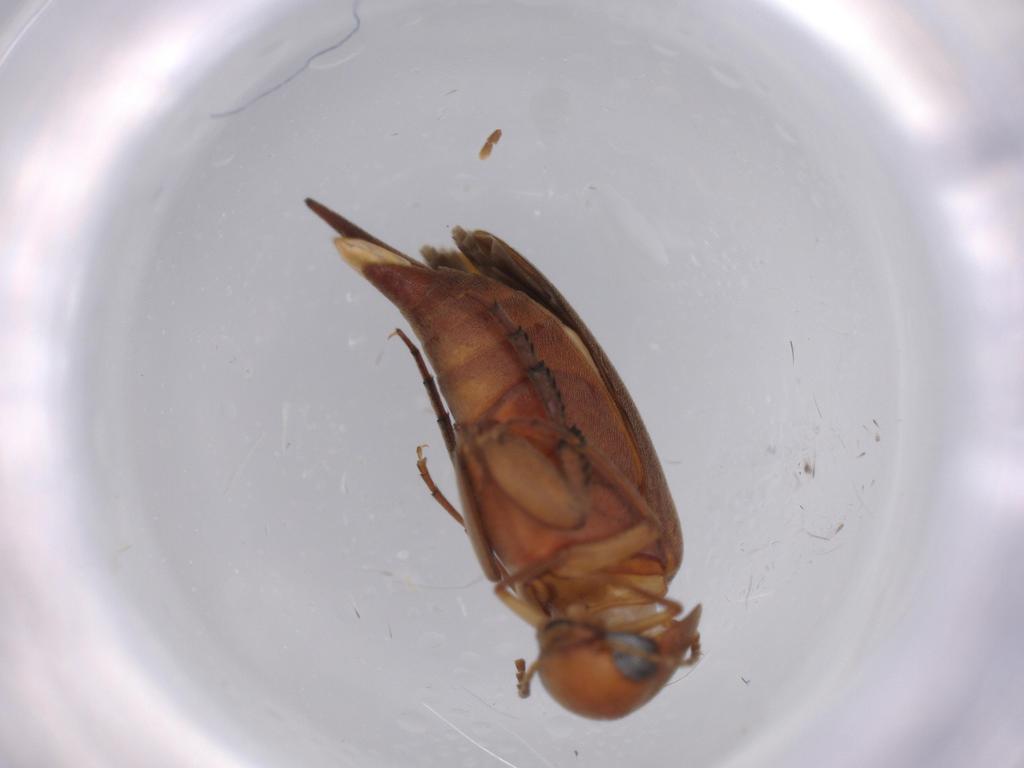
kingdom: Animalia
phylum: Arthropoda
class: Insecta
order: Coleoptera
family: Mordellidae
